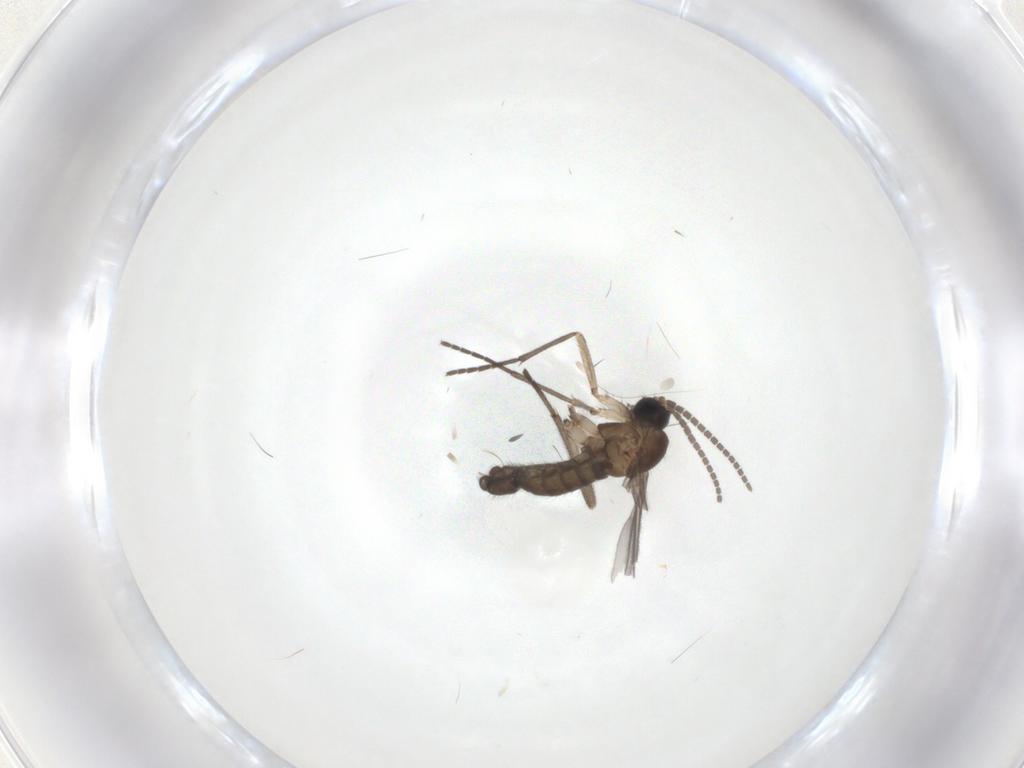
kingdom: Animalia
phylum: Arthropoda
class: Insecta
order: Diptera
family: Sciaridae
